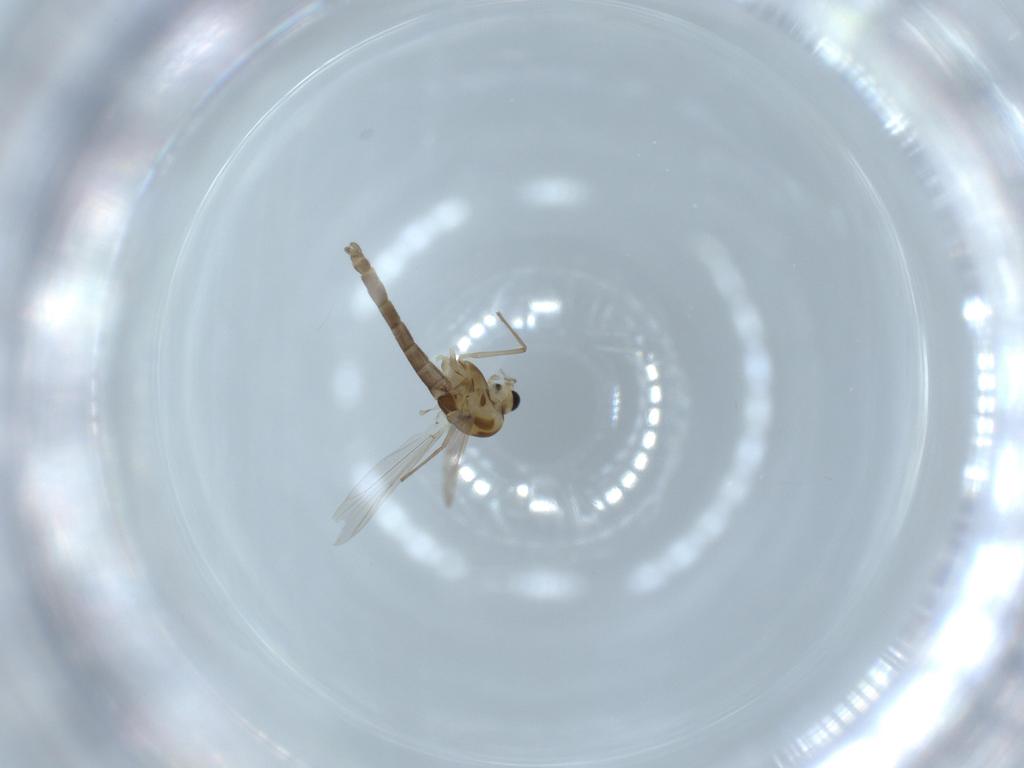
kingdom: Animalia
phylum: Arthropoda
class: Insecta
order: Diptera
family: Chironomidae
